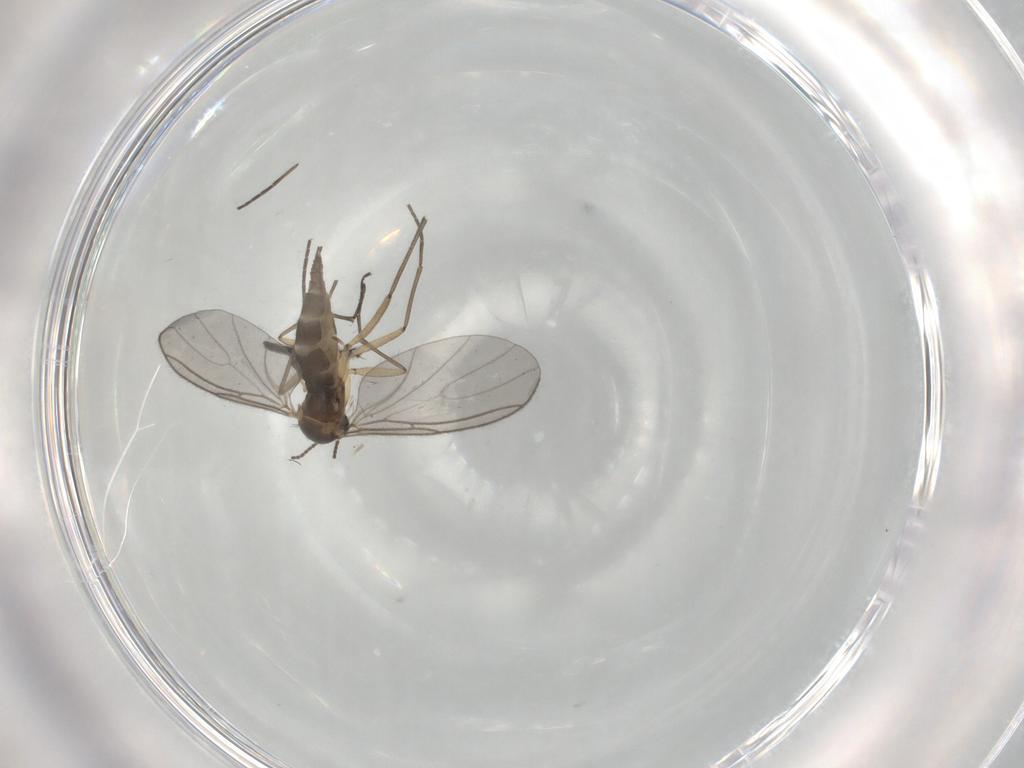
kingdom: Animalia
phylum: Arthropoda
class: Insecta
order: Diptera
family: Sciaridae
